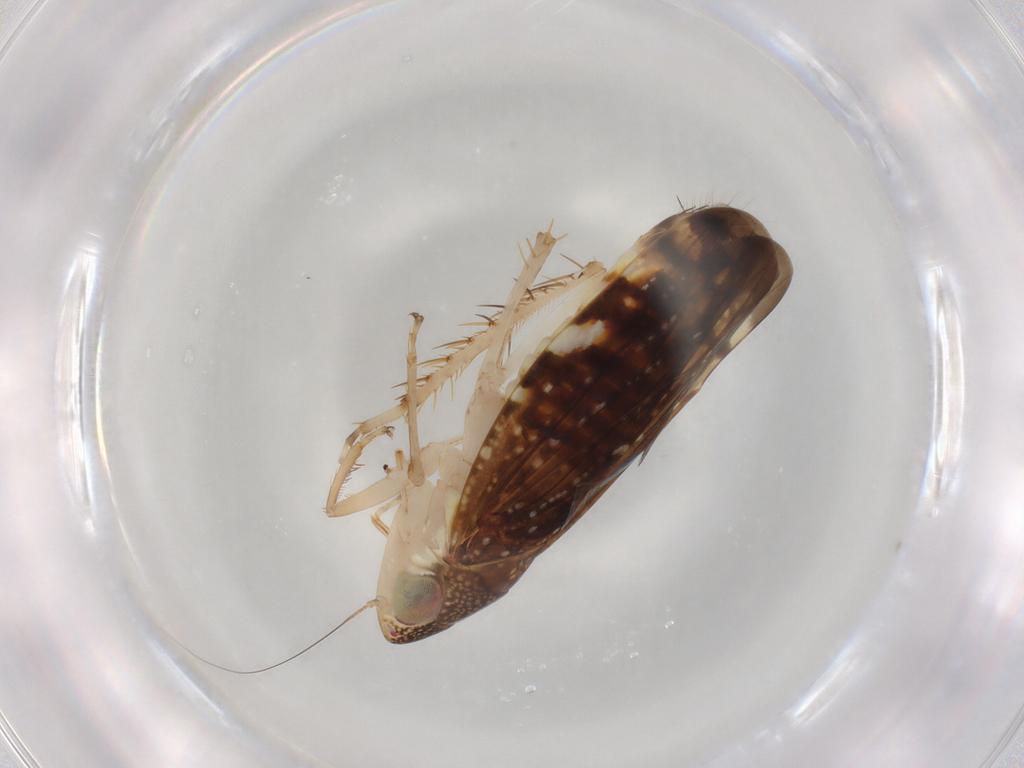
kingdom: Animalia
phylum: Arthropoda
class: Insecta
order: Hemiptera
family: Cicadellidae
